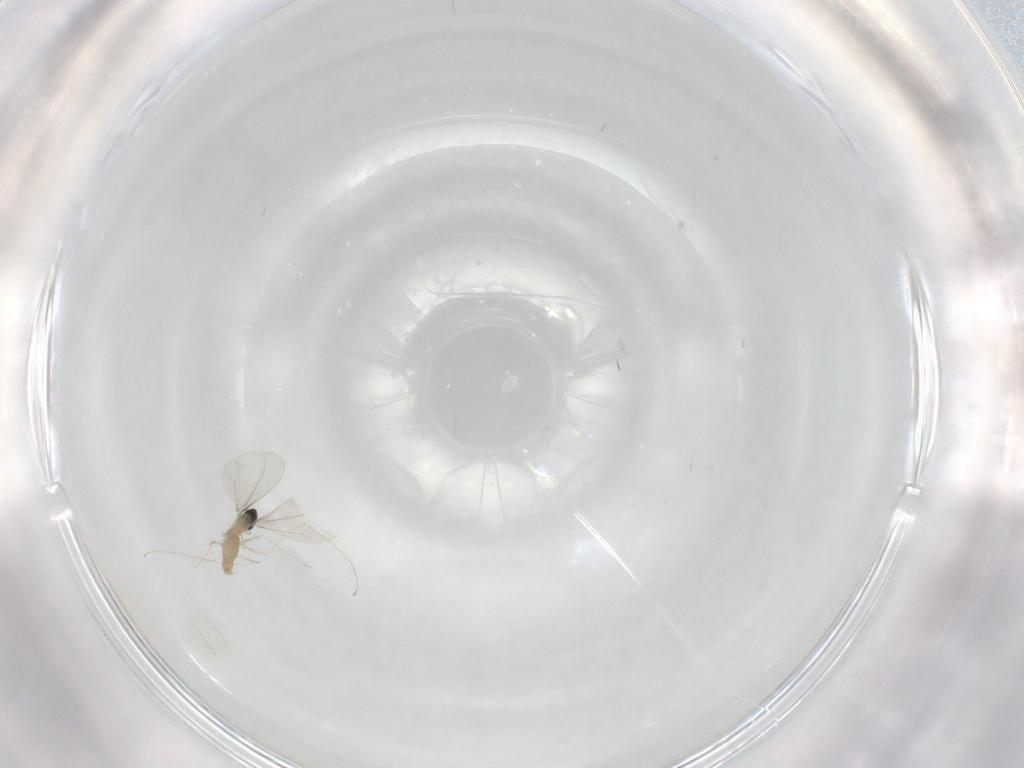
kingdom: Animalia
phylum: Arthropoda
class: Insecta
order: Diptera
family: Cecidomyiidae
